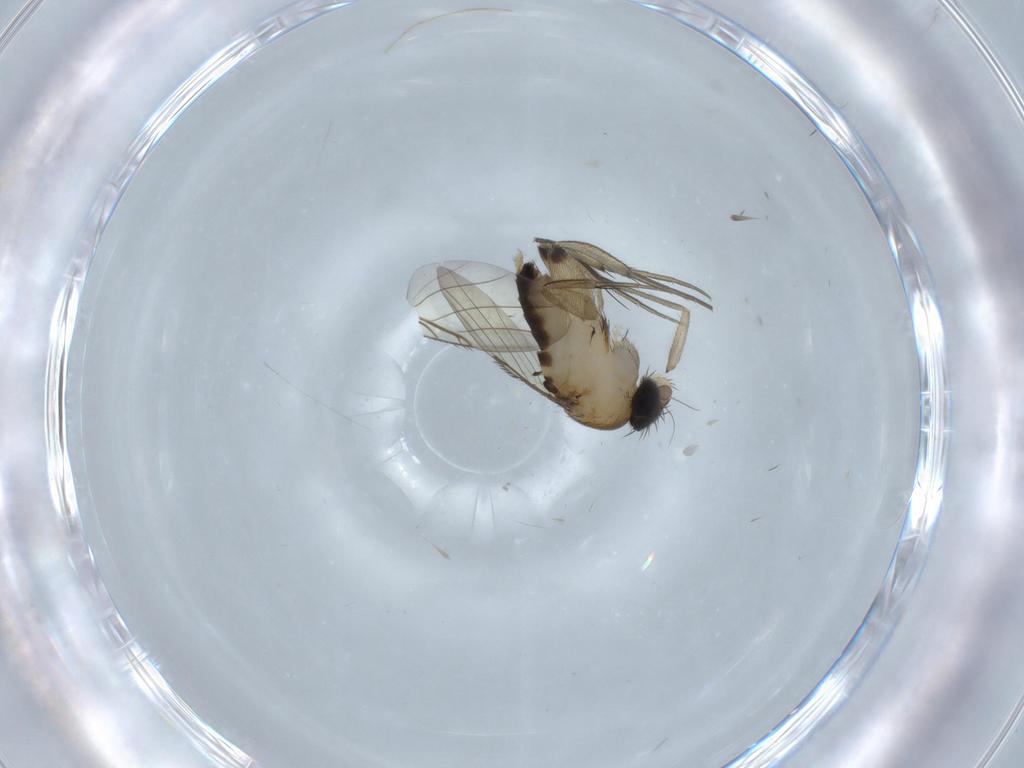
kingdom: Animalia
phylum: Arthropoda
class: Insecta
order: Diptera
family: Phoridae
